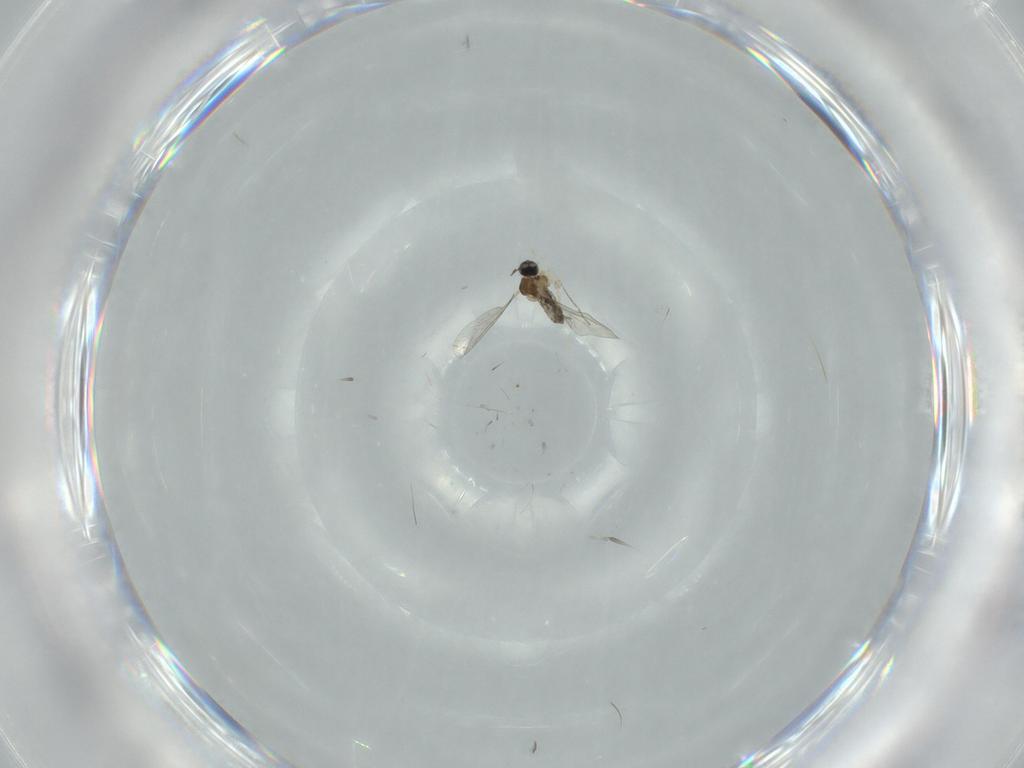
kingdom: Animalia
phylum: Arthropoda
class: Insecta
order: Diptera
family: Cecidomyiidae
